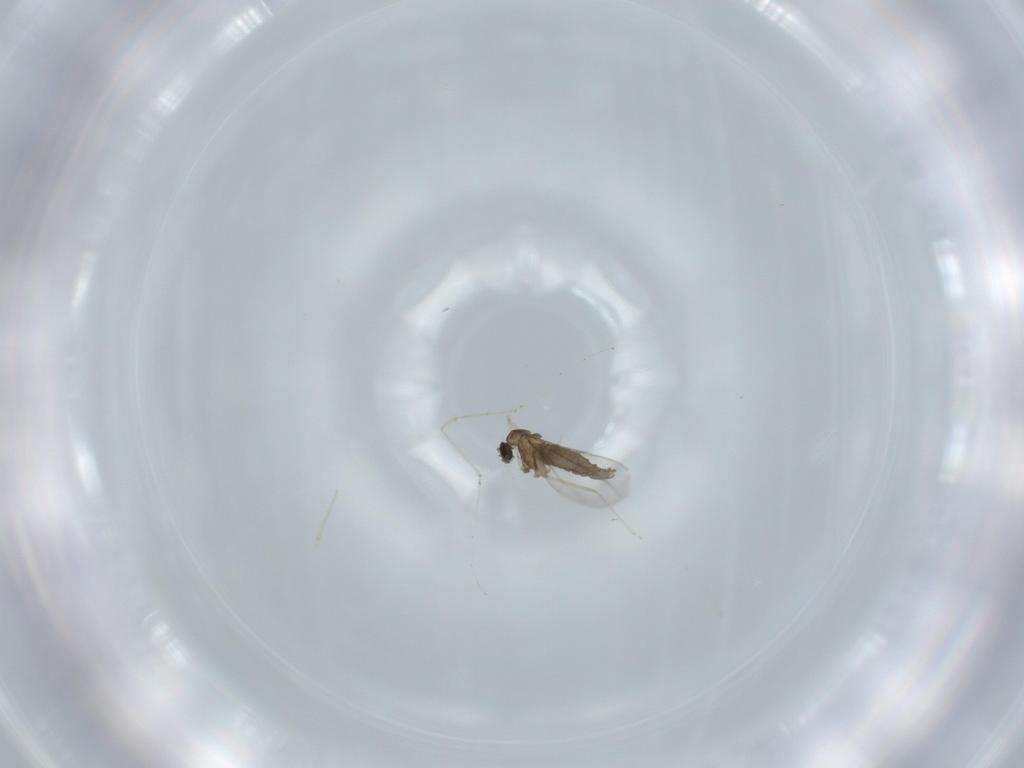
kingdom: Animalia
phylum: Arthropoda
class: Insecta
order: Diptera
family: Cecidomyiidae
